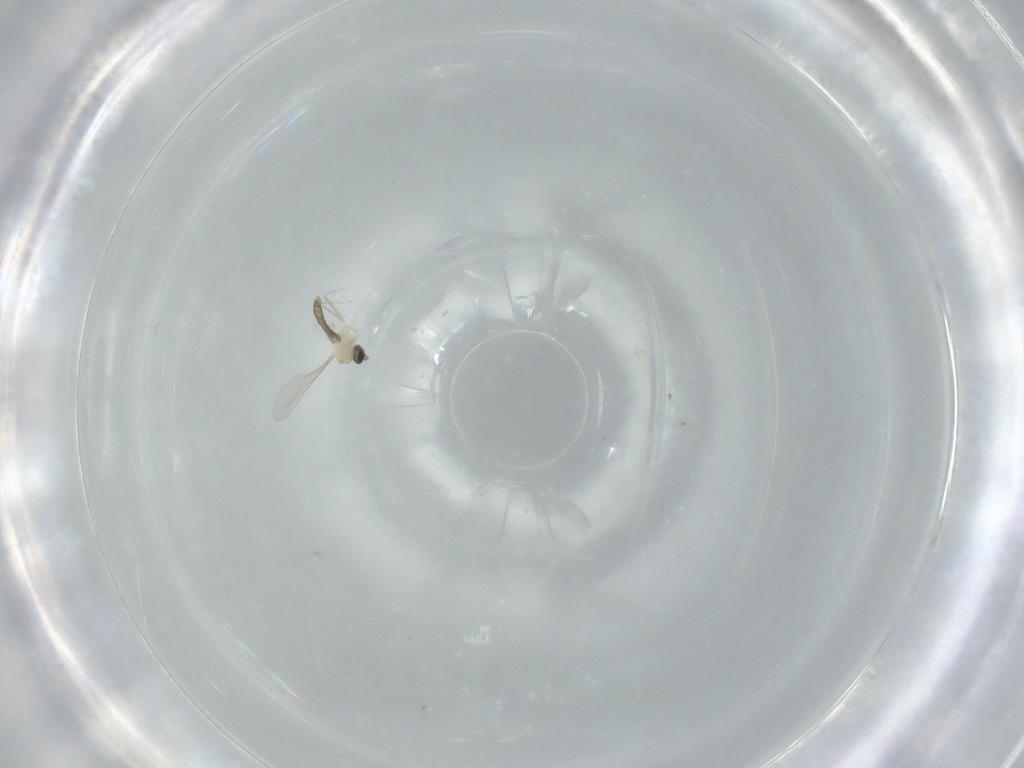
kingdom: Animalia
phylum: Arthropoda
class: Insecta
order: Diptera
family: Cecidomyiidae
